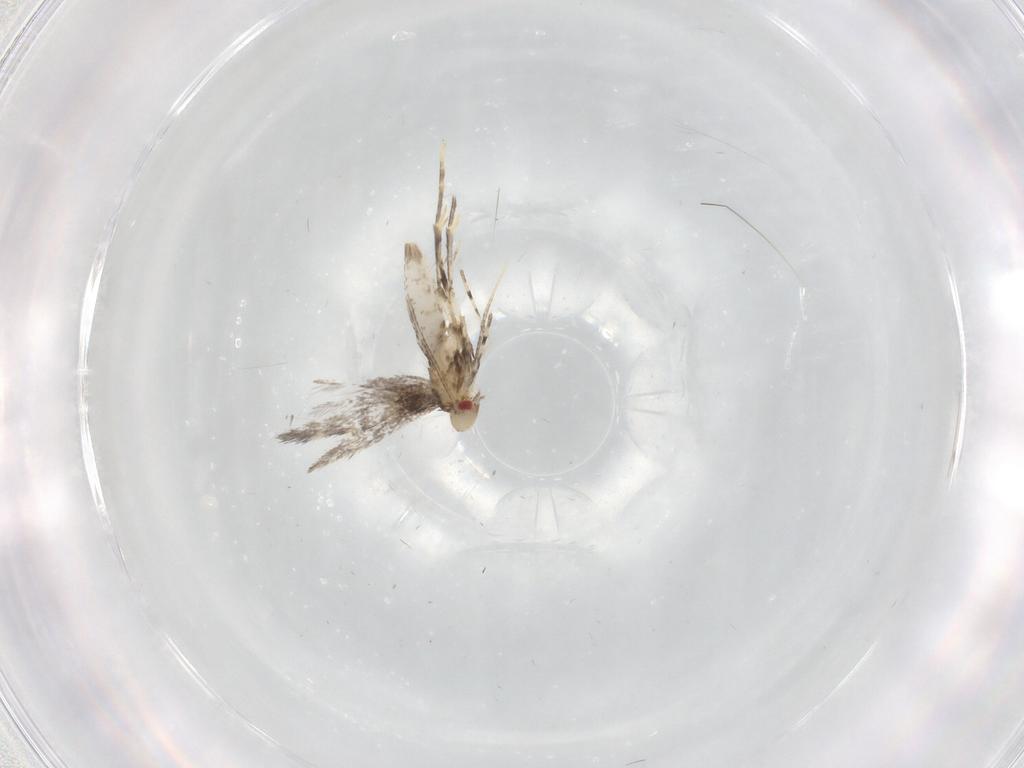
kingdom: Animalia
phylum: Arthropoda
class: Insecta
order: Lepidoptera
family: Gracillariidae
